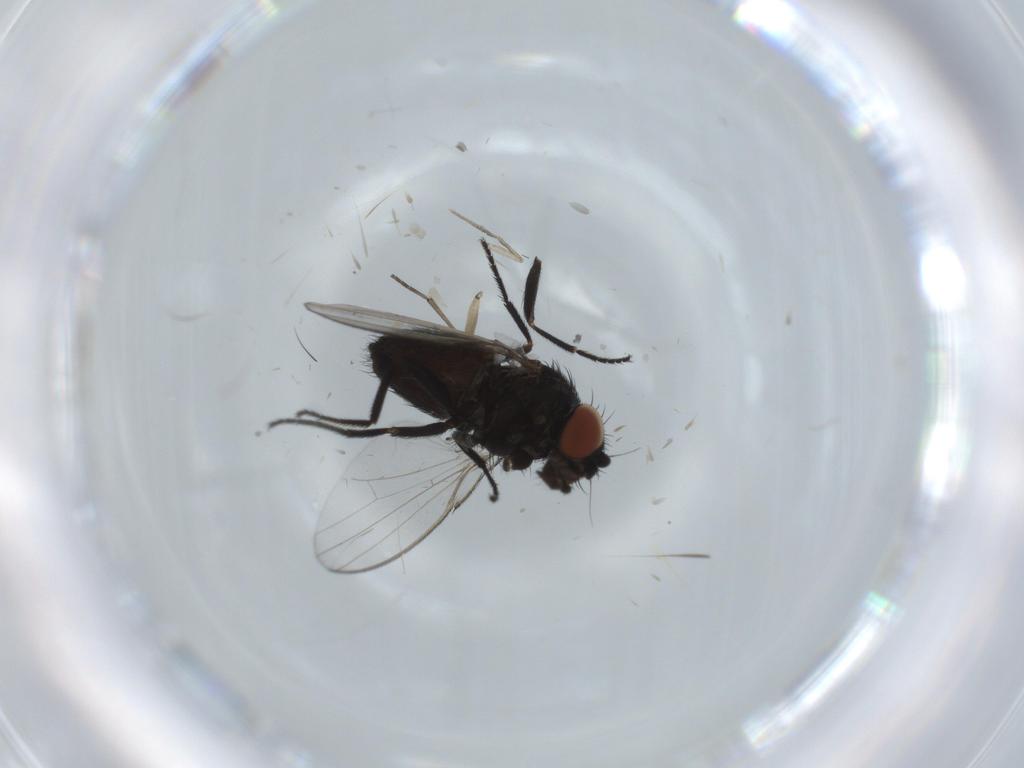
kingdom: Animalia
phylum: Arthropoda
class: Insecta
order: Diptera
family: Milichiidae
